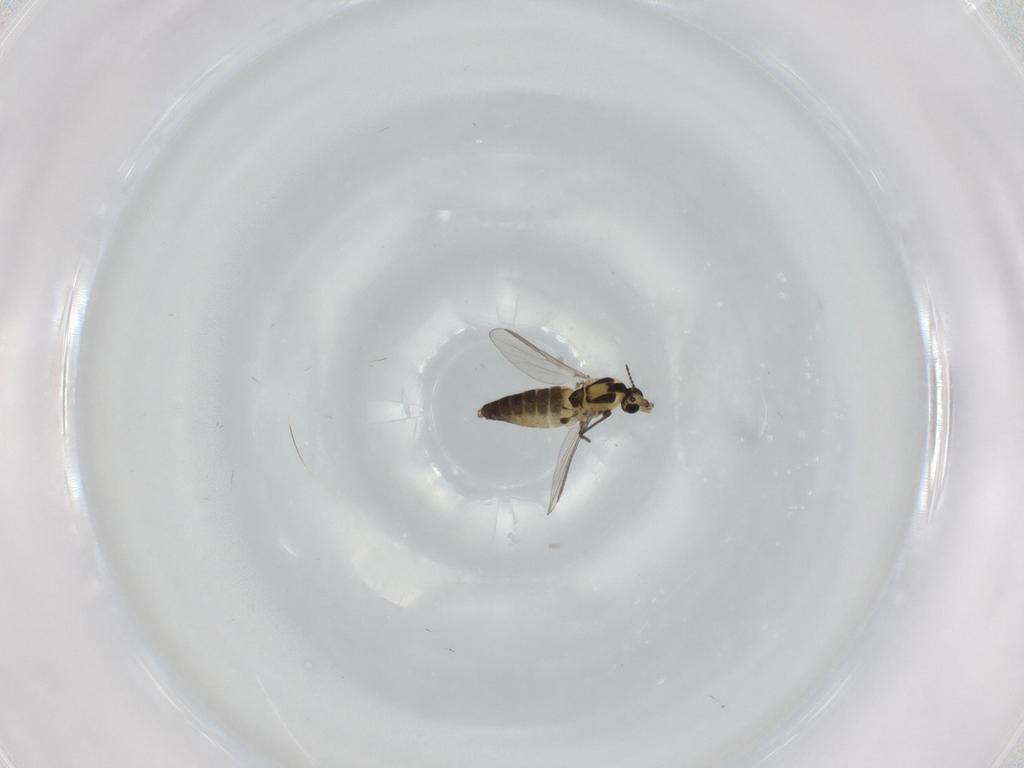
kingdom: Animalia
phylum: Arthropoda
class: Insecta
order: Diptera
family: Chironomidae
